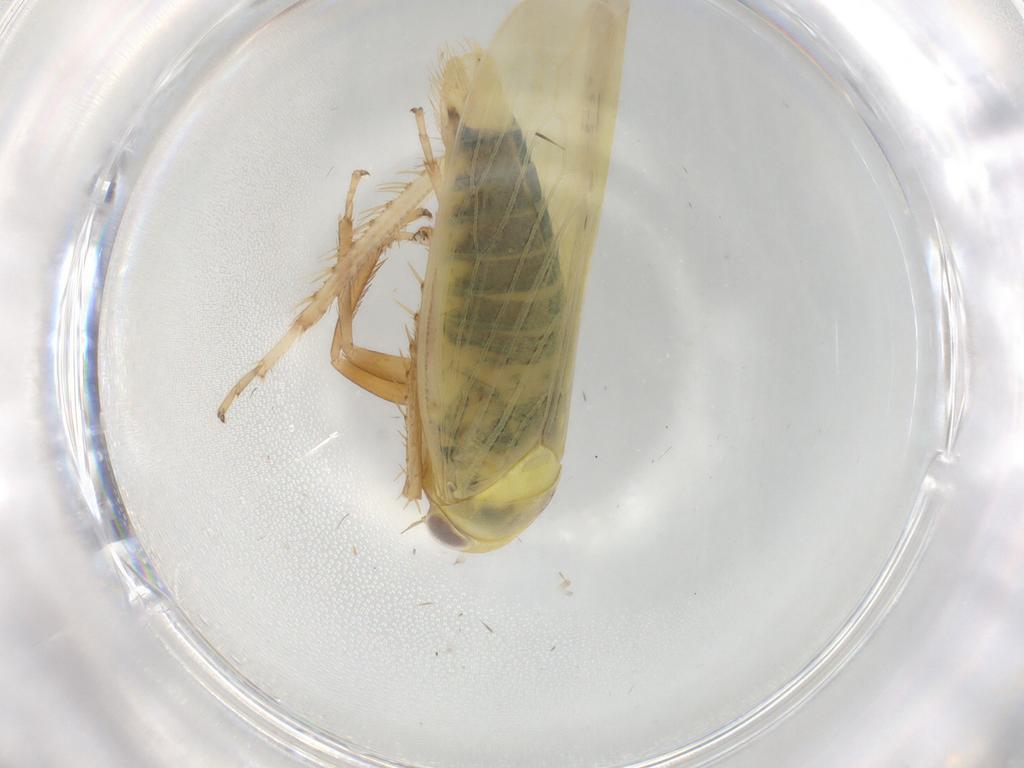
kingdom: Animalia
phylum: Arthropoda
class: Insecta
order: Hemiptera
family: Cicadellidae
